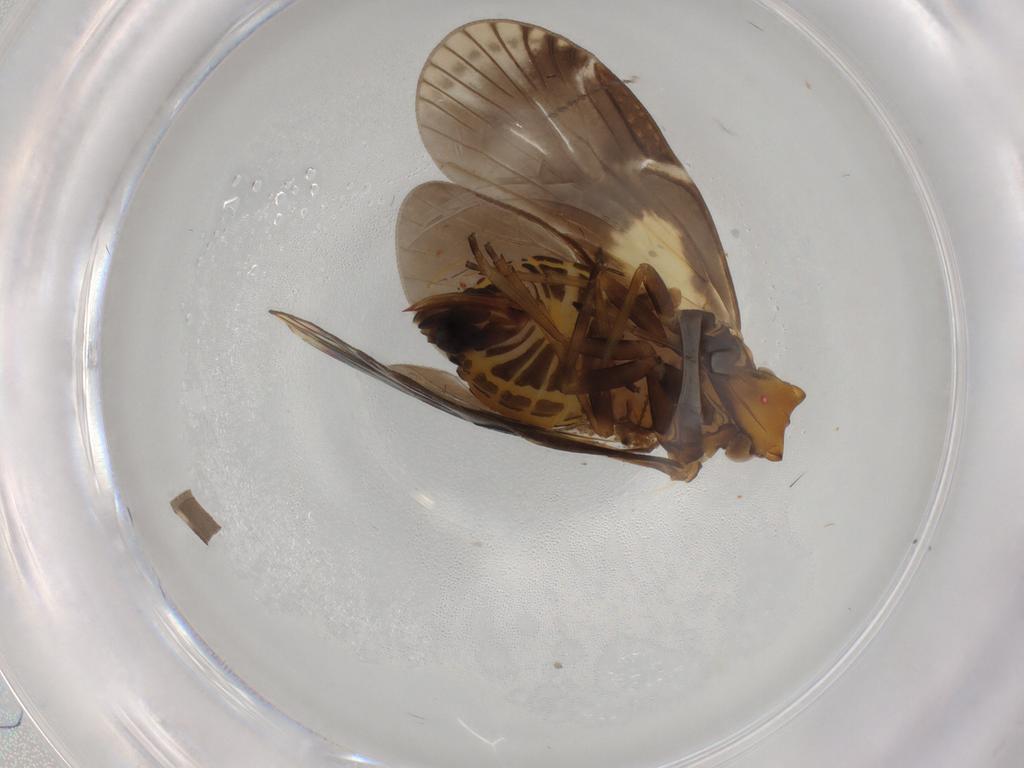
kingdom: Animalia
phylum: Arthropoda
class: Insecta
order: Hemiptera
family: Cixiidae
